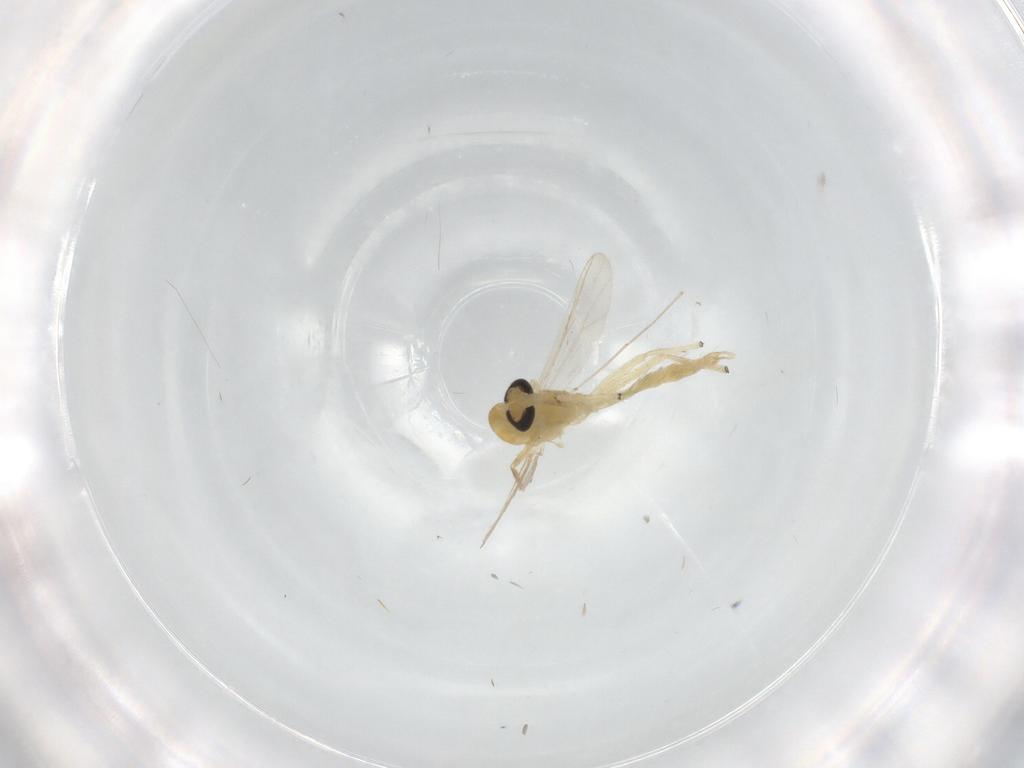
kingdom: Animalia
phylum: Arthropoda
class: Insecta
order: Diptera
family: Chironomidae
